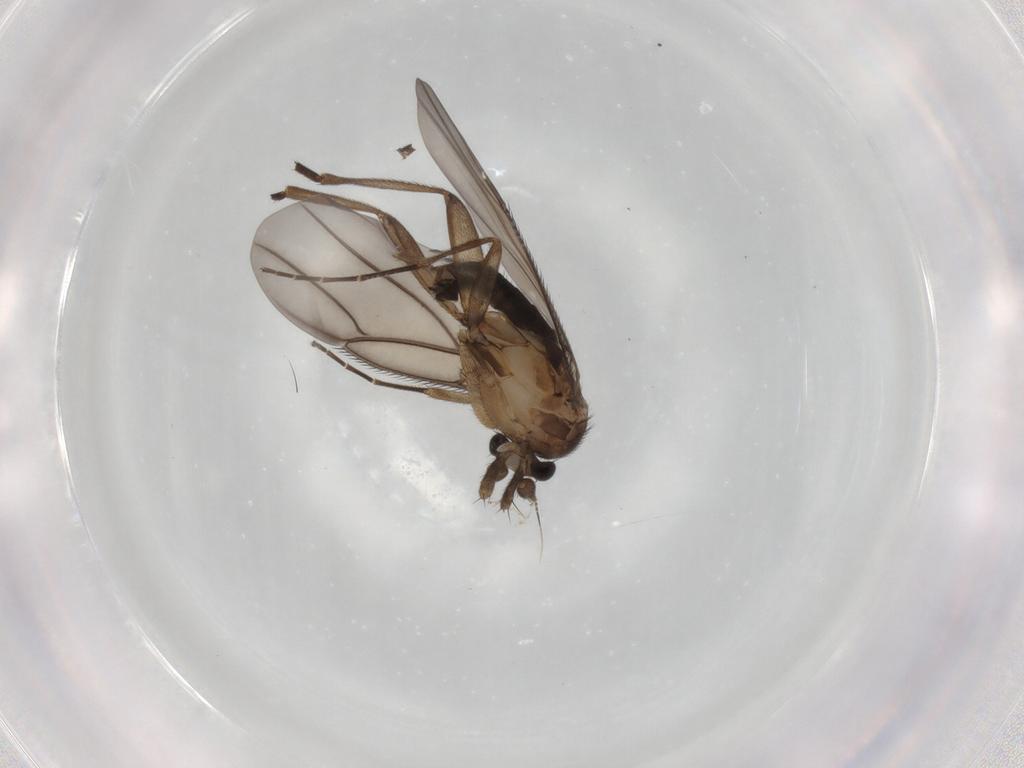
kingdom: Animalia
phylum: Arthropoda
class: Insecta
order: Diptera
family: Phoridae
